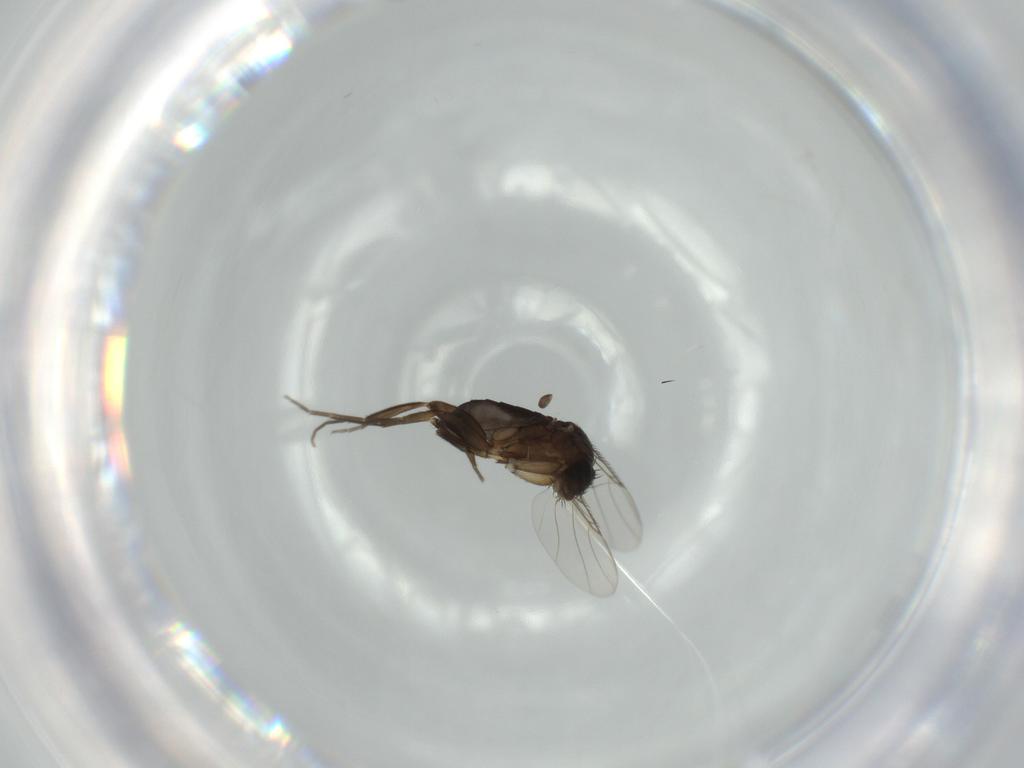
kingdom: Animalia
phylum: Arthropoda
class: Insecta
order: Diptera
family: Phoridae
